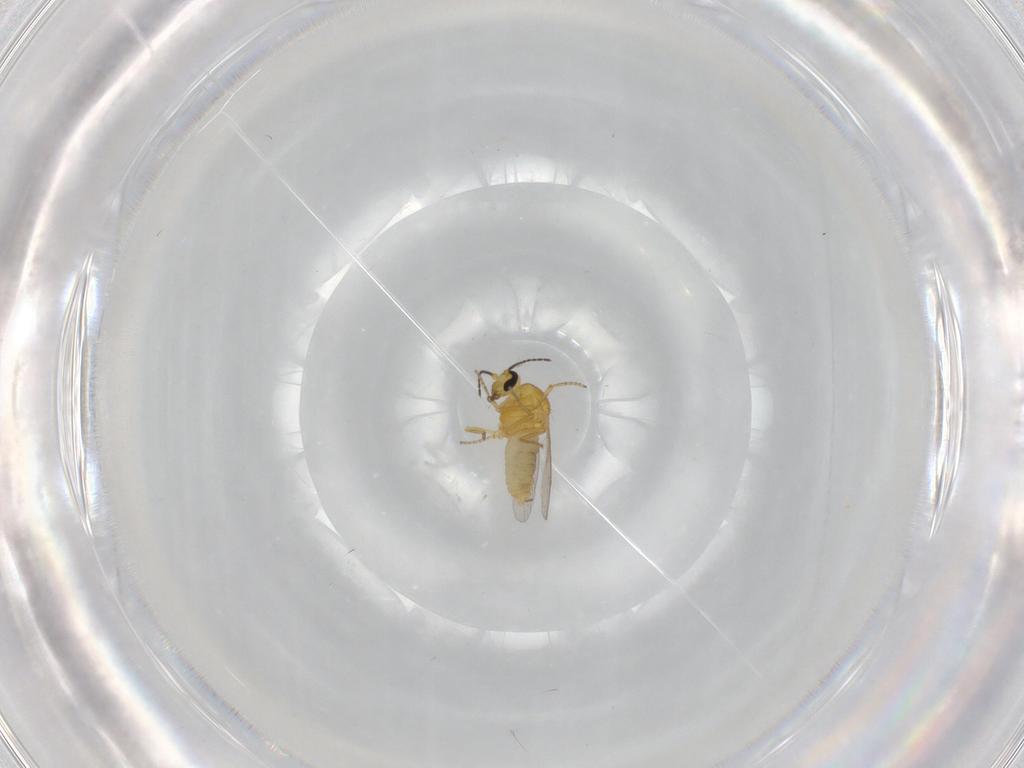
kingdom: Animalia
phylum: Arthropoda
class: Insecta
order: Diptera
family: Ceratopogonidae
